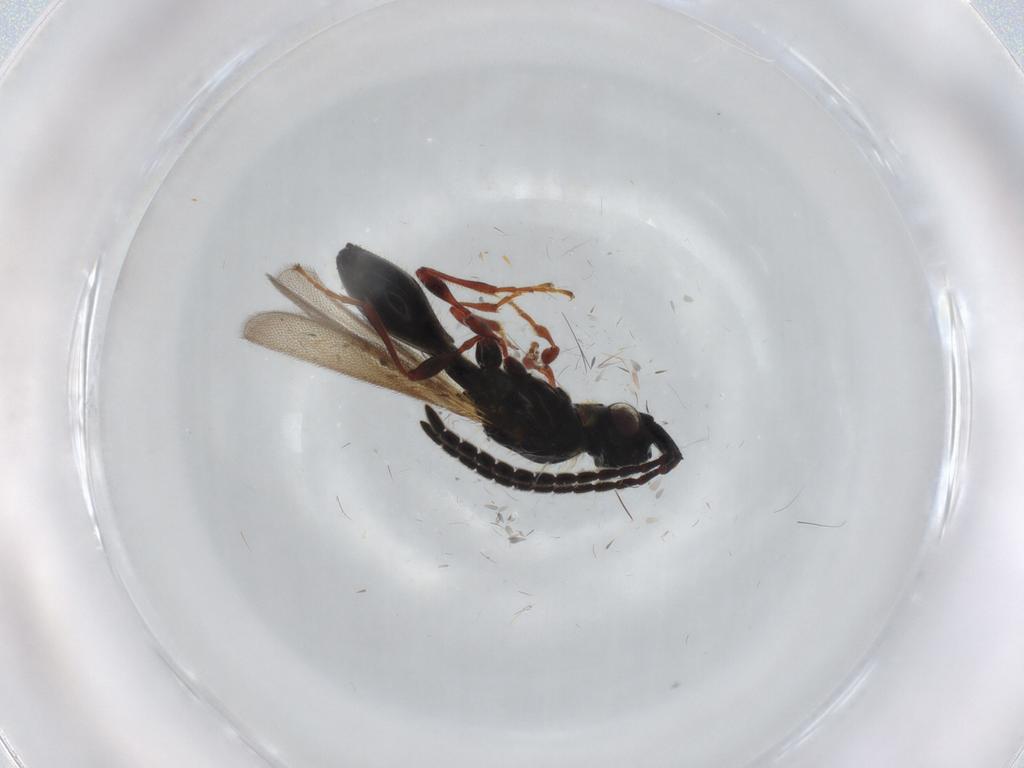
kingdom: Animalia
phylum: Arthropoda
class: Insecta
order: Hymenoptera
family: Diapriidae
